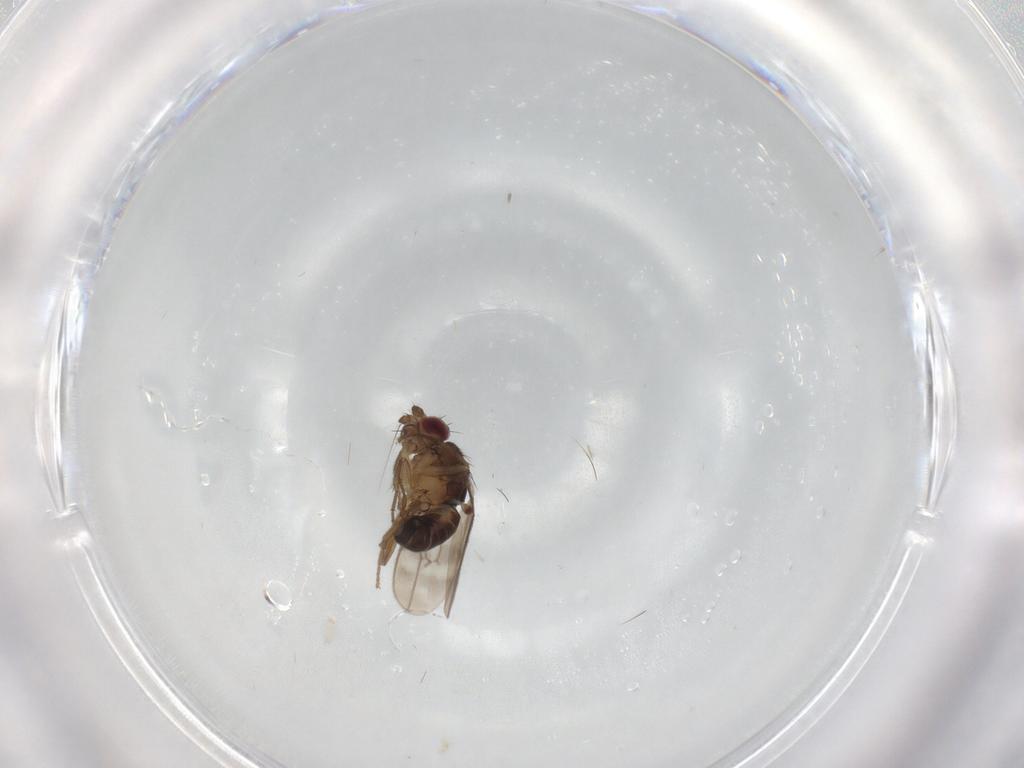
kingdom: Animalia
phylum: Arthropoda
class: Insecta
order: Diptera
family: Sphaeroceridae
